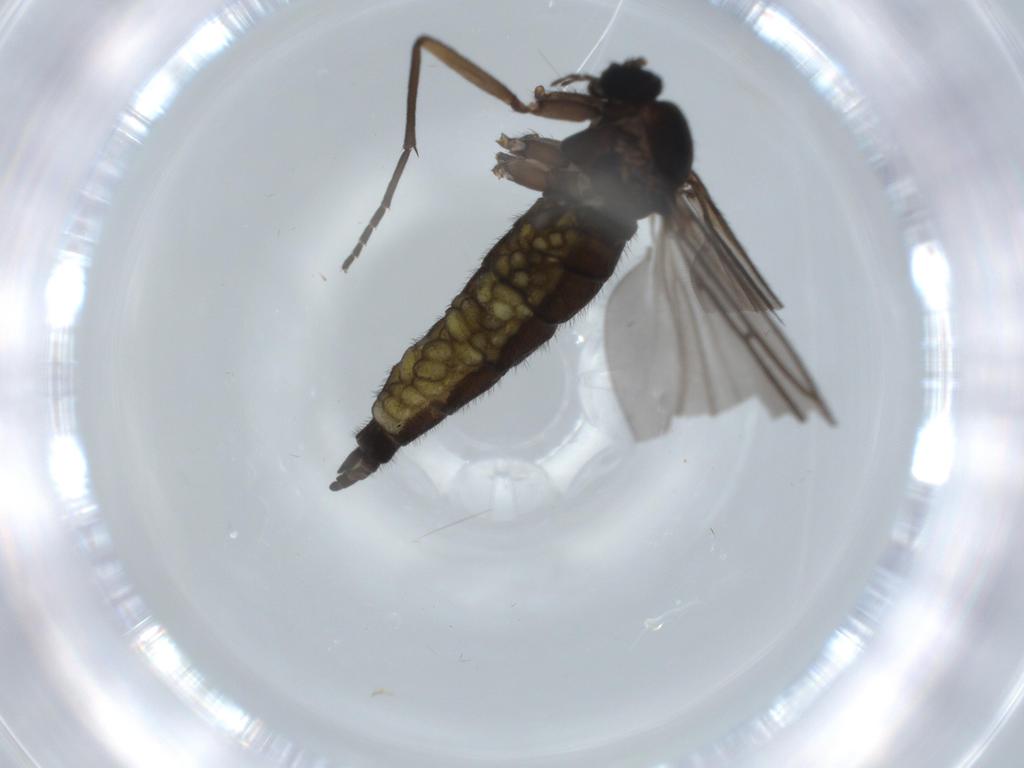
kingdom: Animalia
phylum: Arthropoda
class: Insecta
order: Diptera
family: Sciaridae
